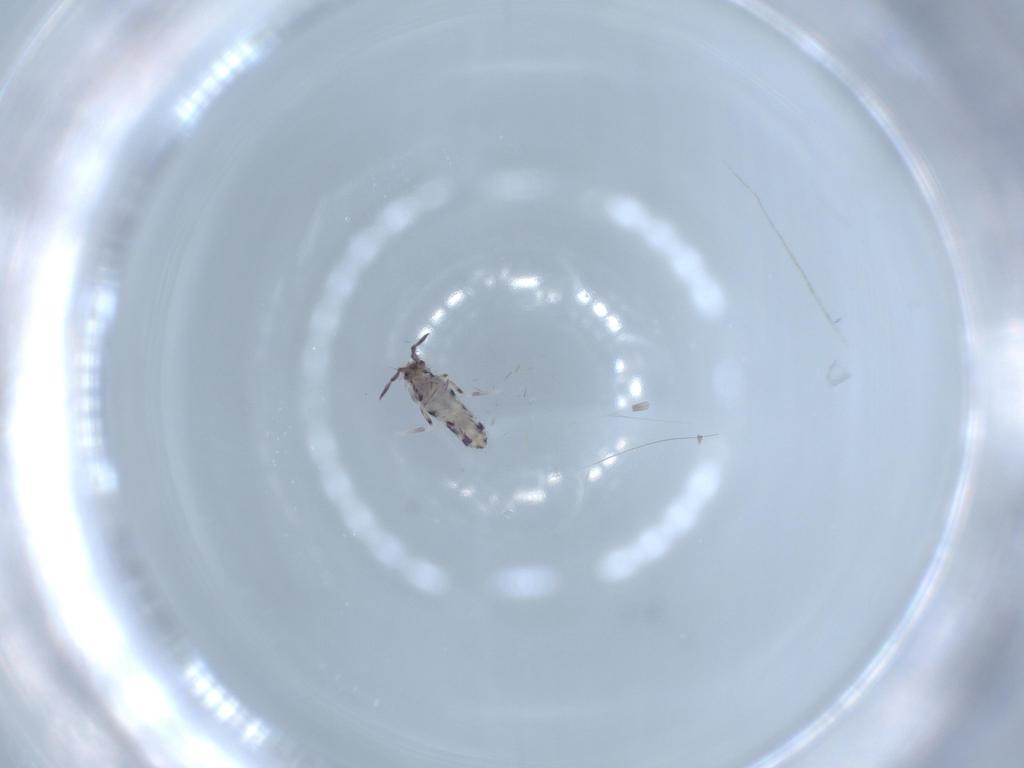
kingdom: Animalia
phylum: Arthropoda
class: Collembola
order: Entomobryomorpha
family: Entomobryidae
